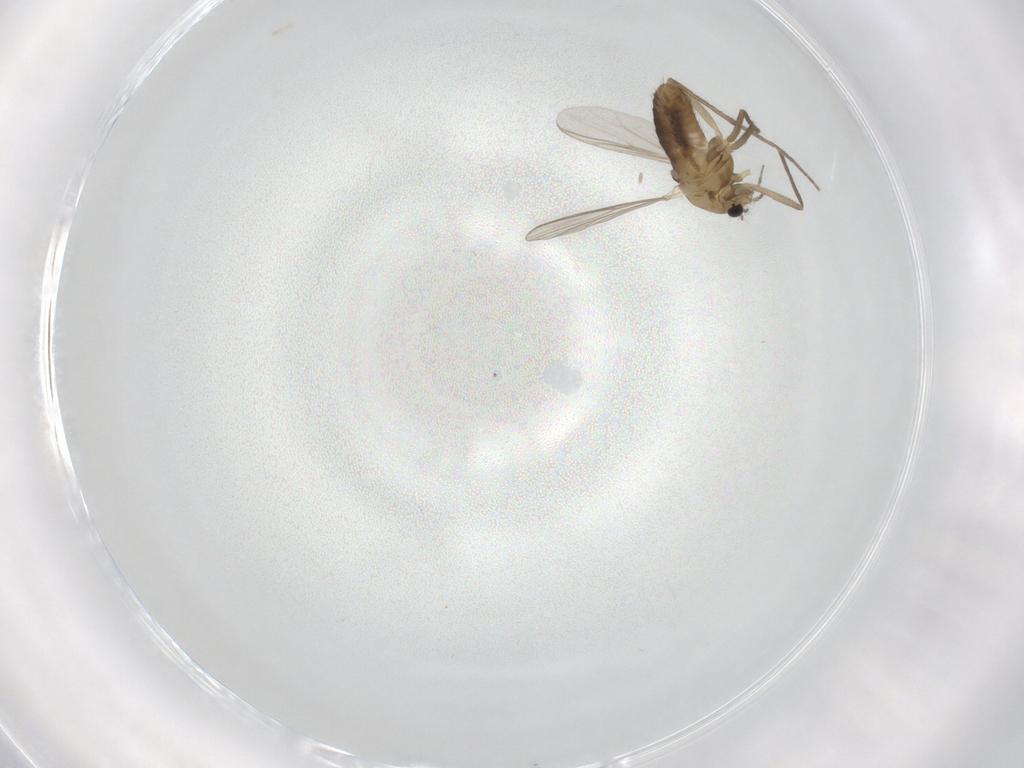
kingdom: Animalia
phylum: Arthropoda
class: Insecta
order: Diptera
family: Chironomidae
